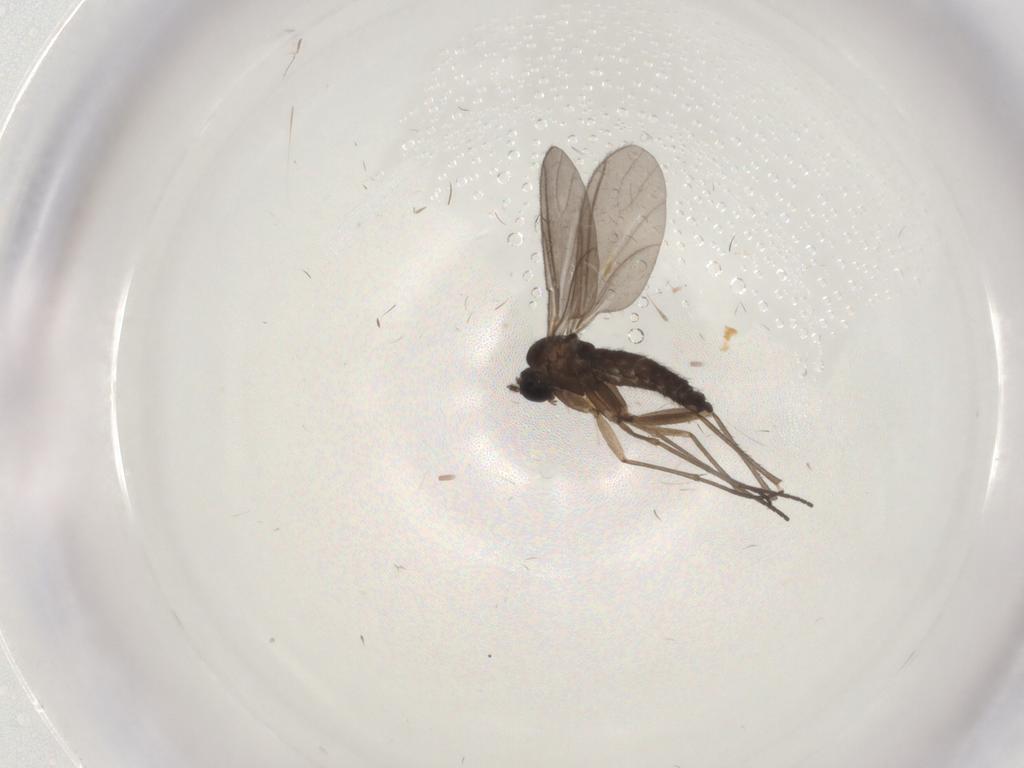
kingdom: Animalia
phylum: Arthropoda
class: Insecta
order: Diptera
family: Sciaridae
